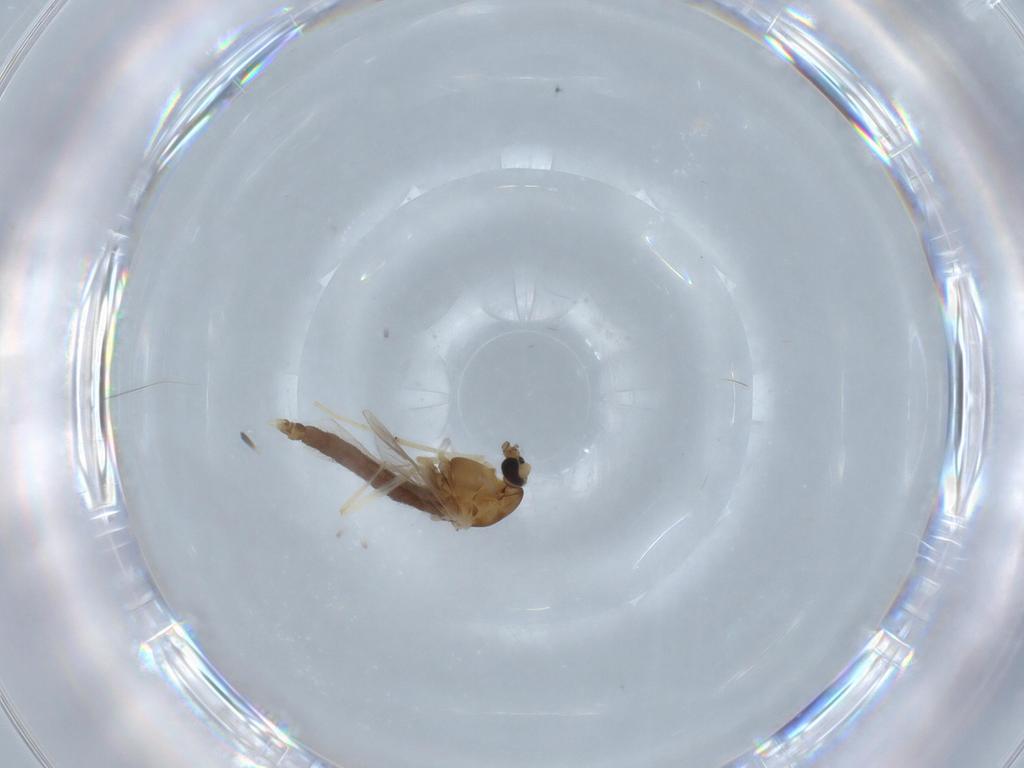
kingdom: Animalia
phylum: Arthropoda
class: Insecta
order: Diptera
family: Chironomidae
